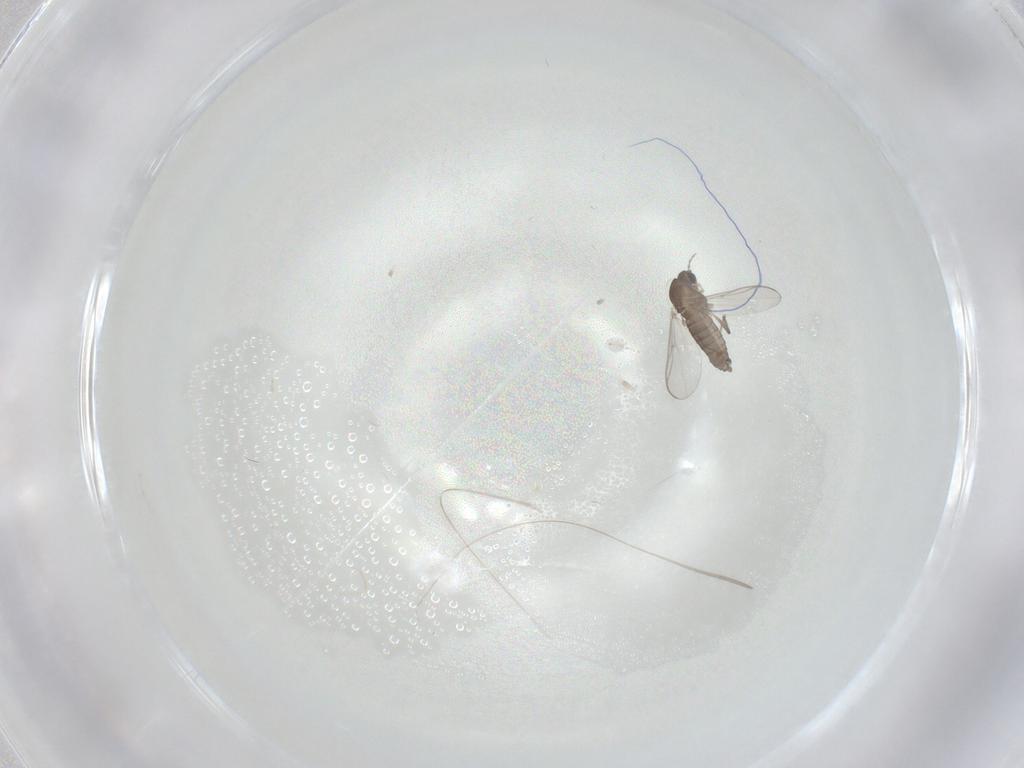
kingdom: Animalia
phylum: Arthropoda
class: Insecta
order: Diptera
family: Chironomidae
